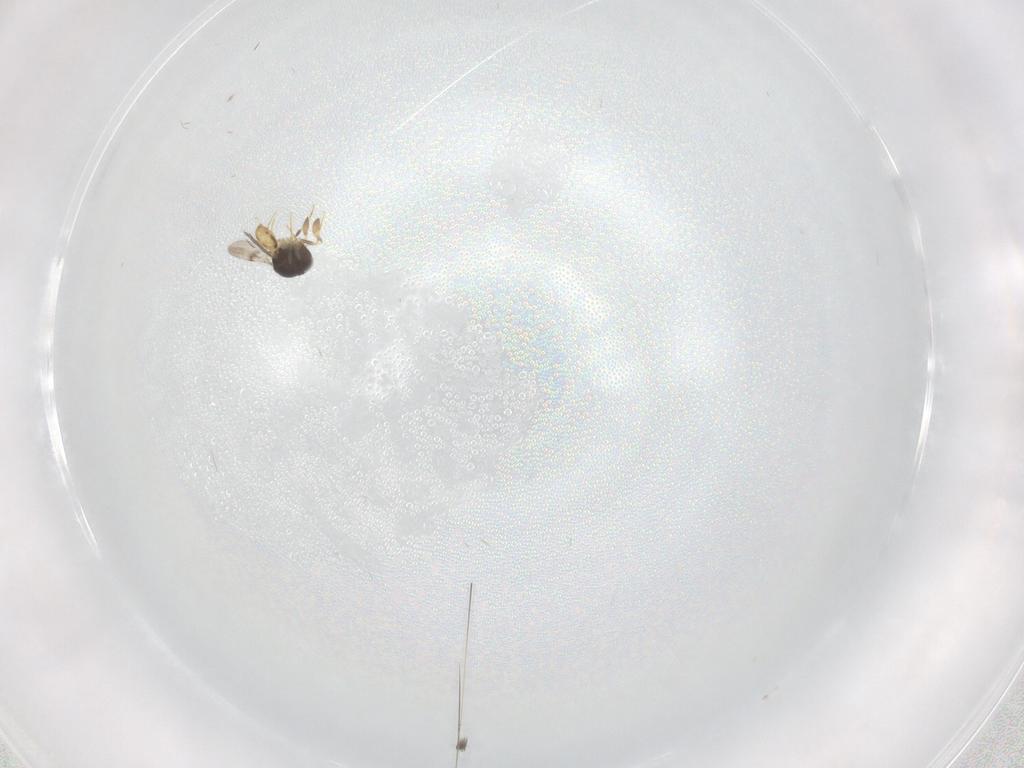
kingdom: Animalia
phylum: Arthropoda
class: Insecta
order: Hymenoptera
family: Scelionidae
